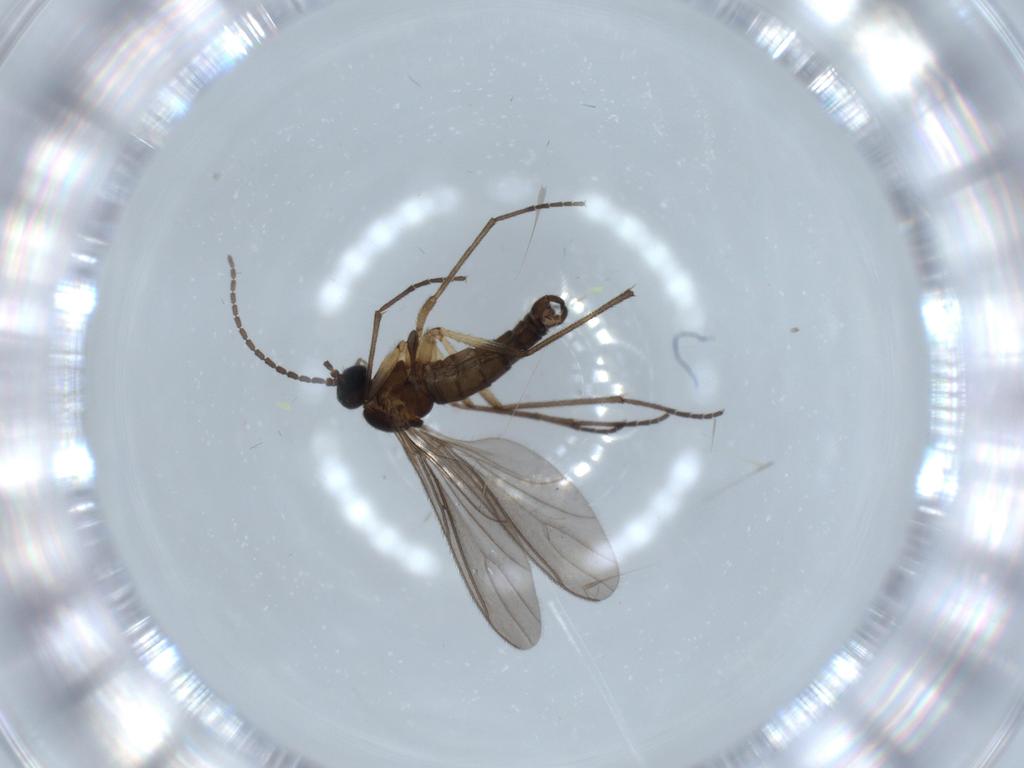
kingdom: Animalia
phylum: Arthropoda
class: Insecta
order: Diptera
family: Sciaridae
